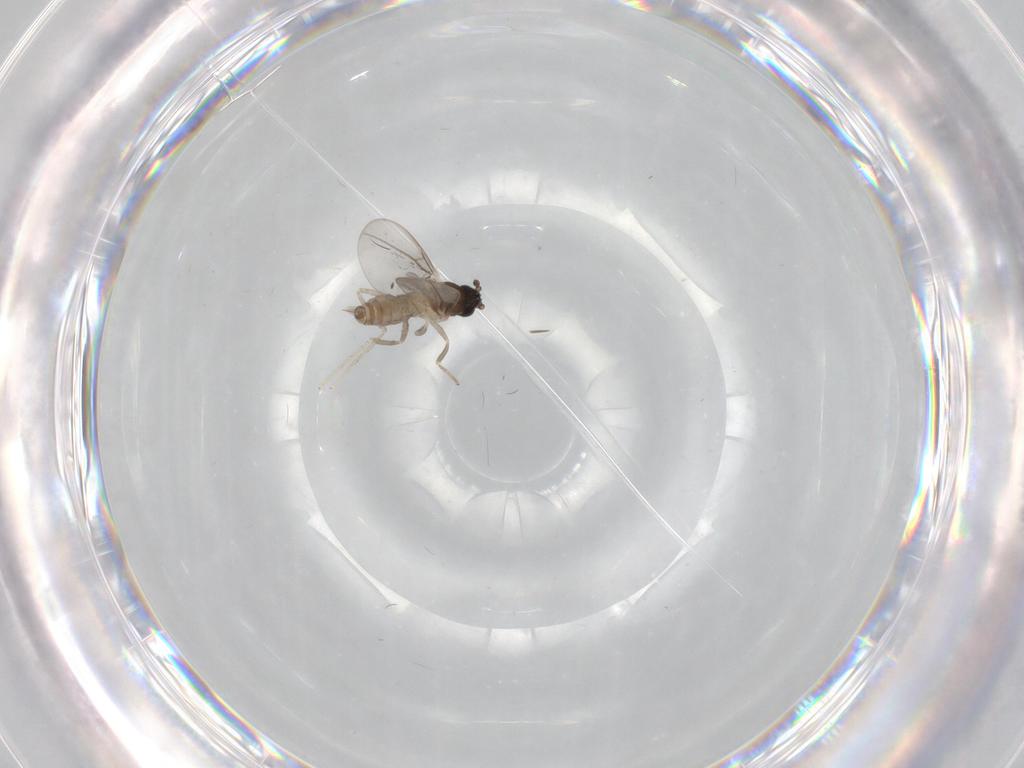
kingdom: Animalia
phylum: Arthropoda
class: Insecta
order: Diptera
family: Cecidomyiidae
